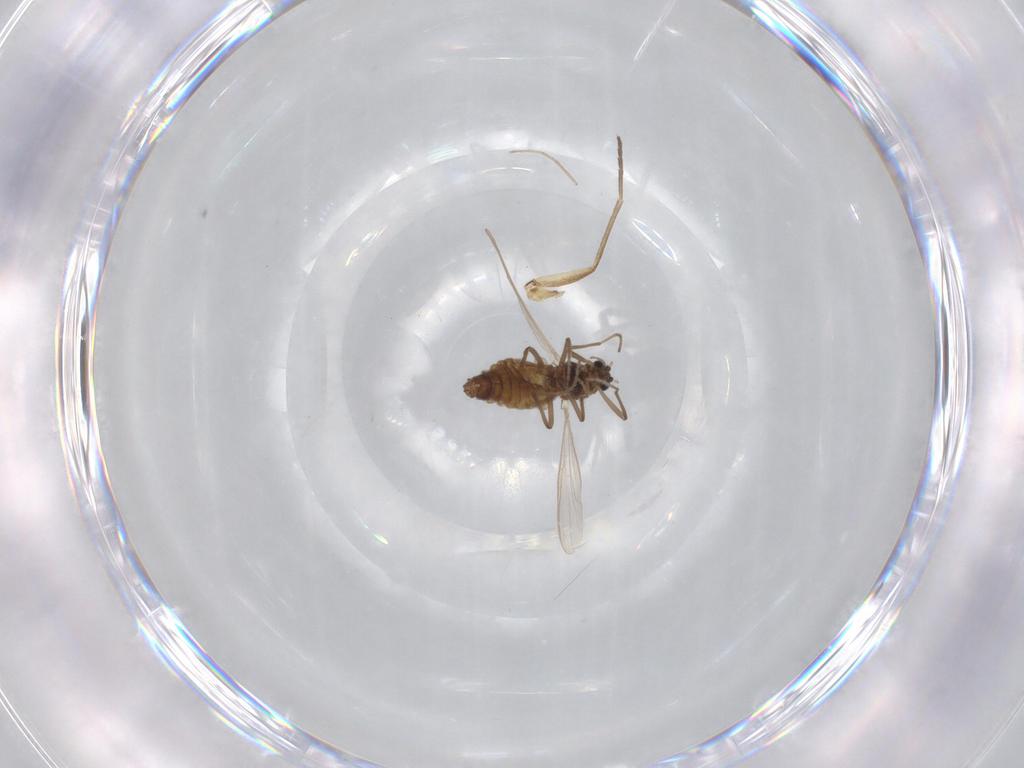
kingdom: Animalia
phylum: Arthropoda
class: Insecta
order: Diptera
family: Chironomidae
